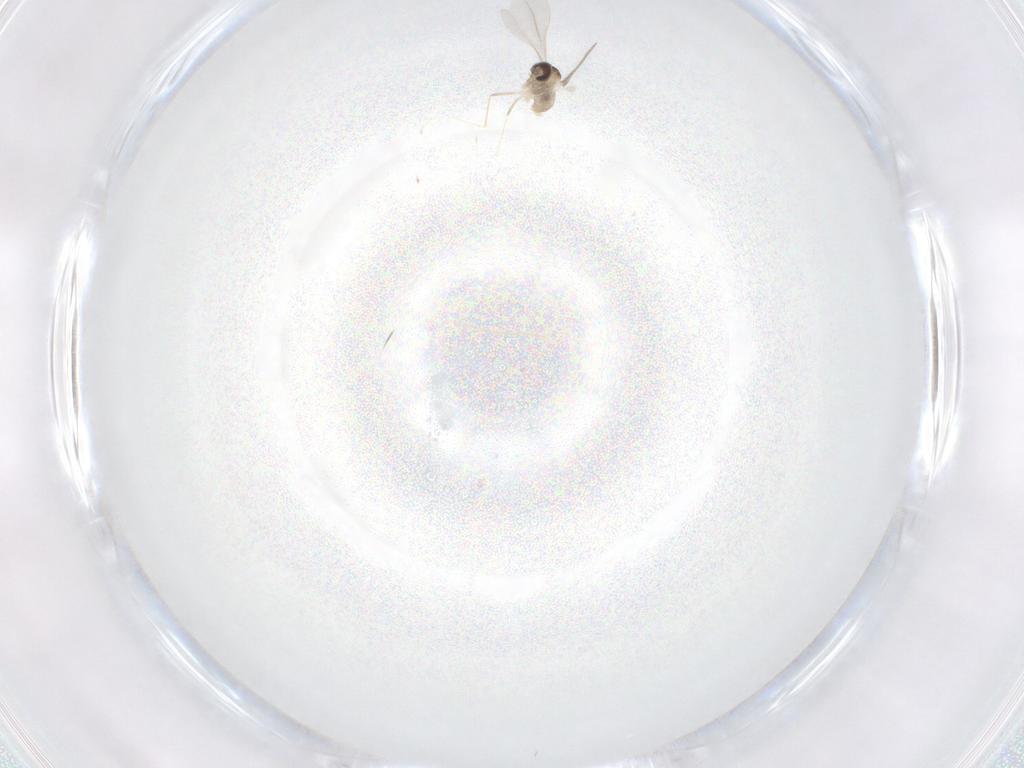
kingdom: Animalia
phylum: Arthropoda
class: Insecta
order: Diptera
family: Cecidomyiidae
